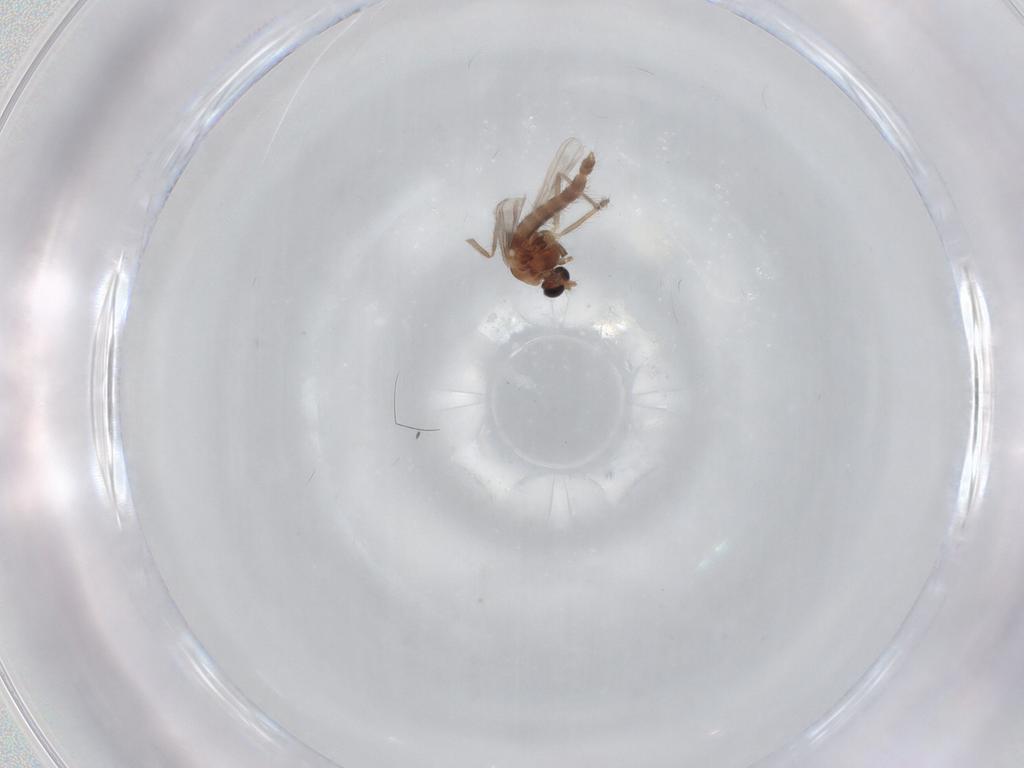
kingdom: Animalia
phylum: Arthropoda
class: Insecta
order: Diptera
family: Chironomidae
